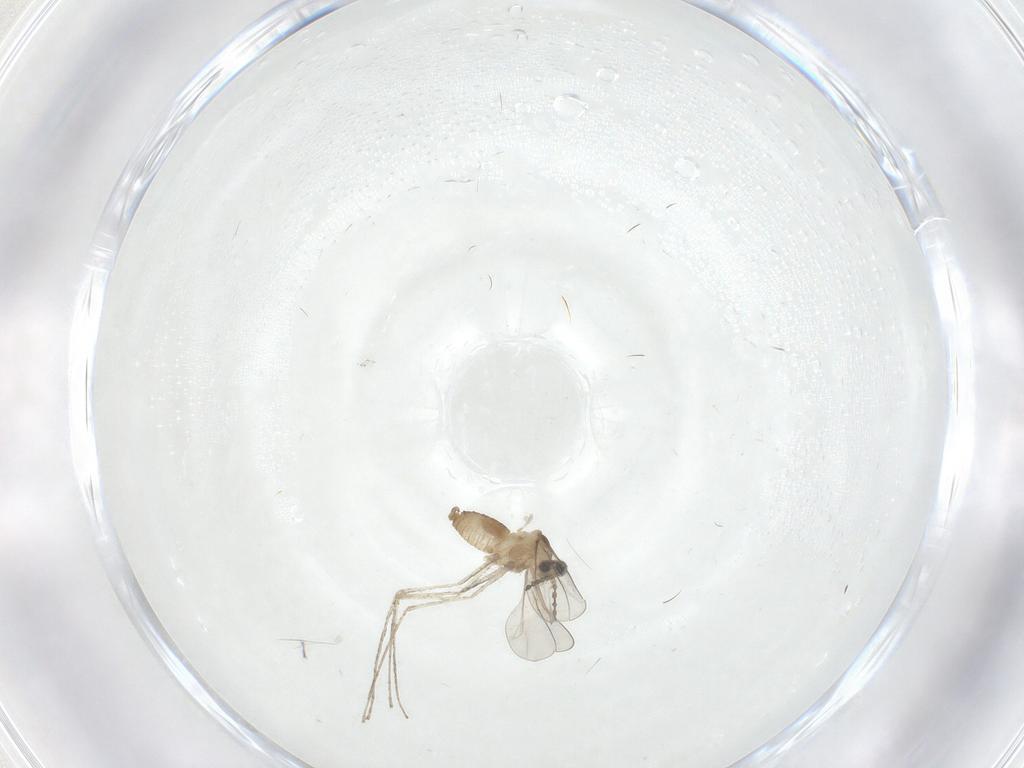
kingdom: Animalia
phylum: Arthropoda
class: Insecta
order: Diptera
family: Cecidomyiidae
